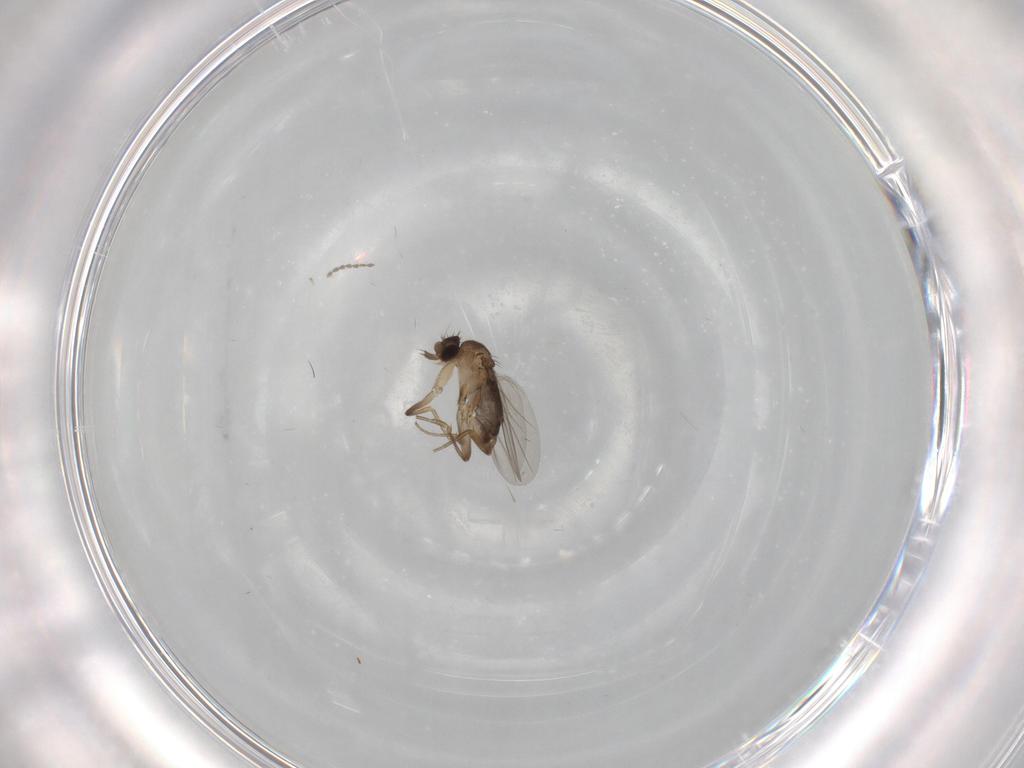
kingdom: Animalia
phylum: Arthropoda
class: Insecta
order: Diptera
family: Phoridae
